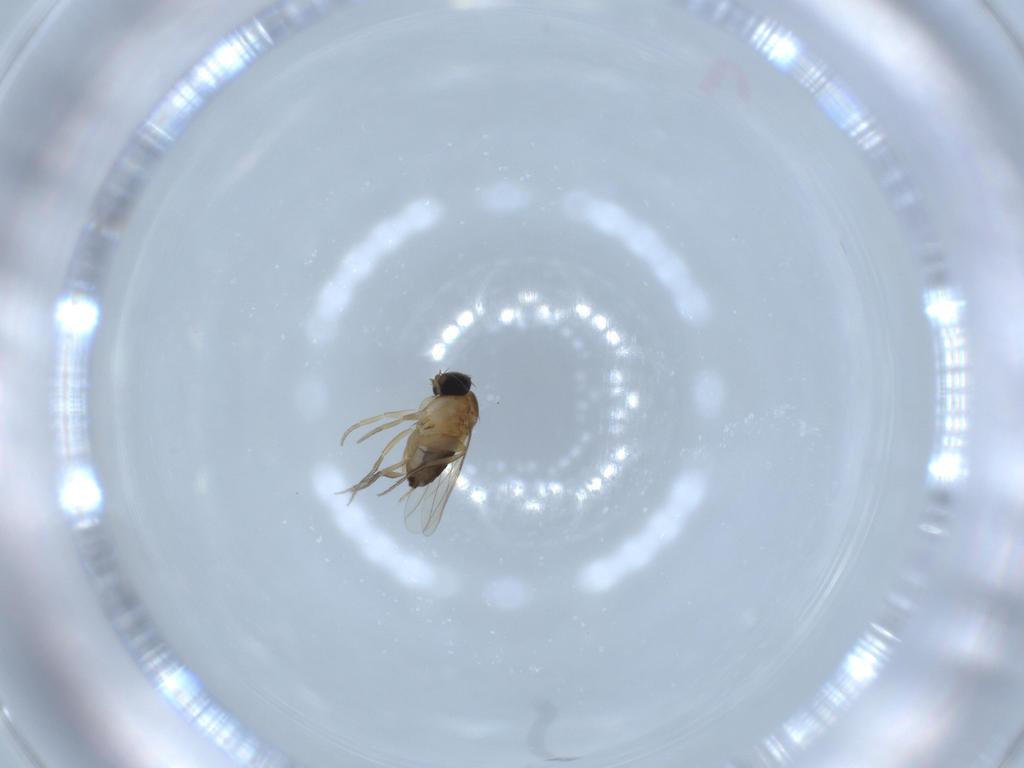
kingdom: Animalia
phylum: Arthropoda
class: Insecta
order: Diptera
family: Phoridae
